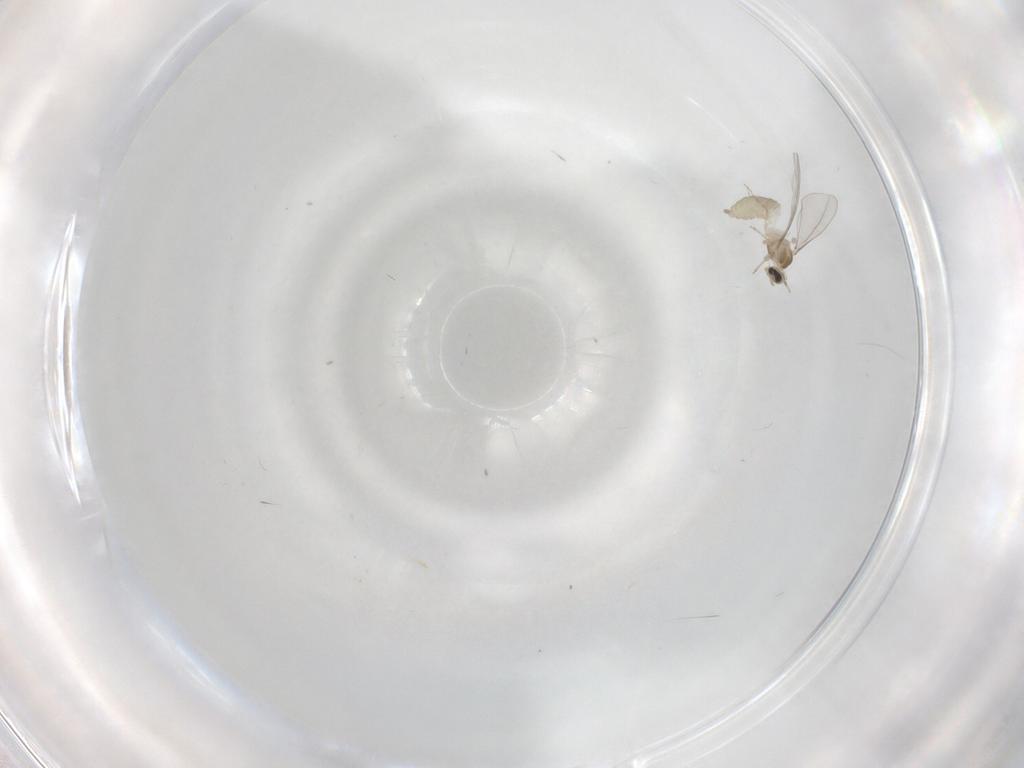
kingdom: Animalia
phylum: Arthropoda
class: Insecta
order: Diptera
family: Cecidomyiidae
